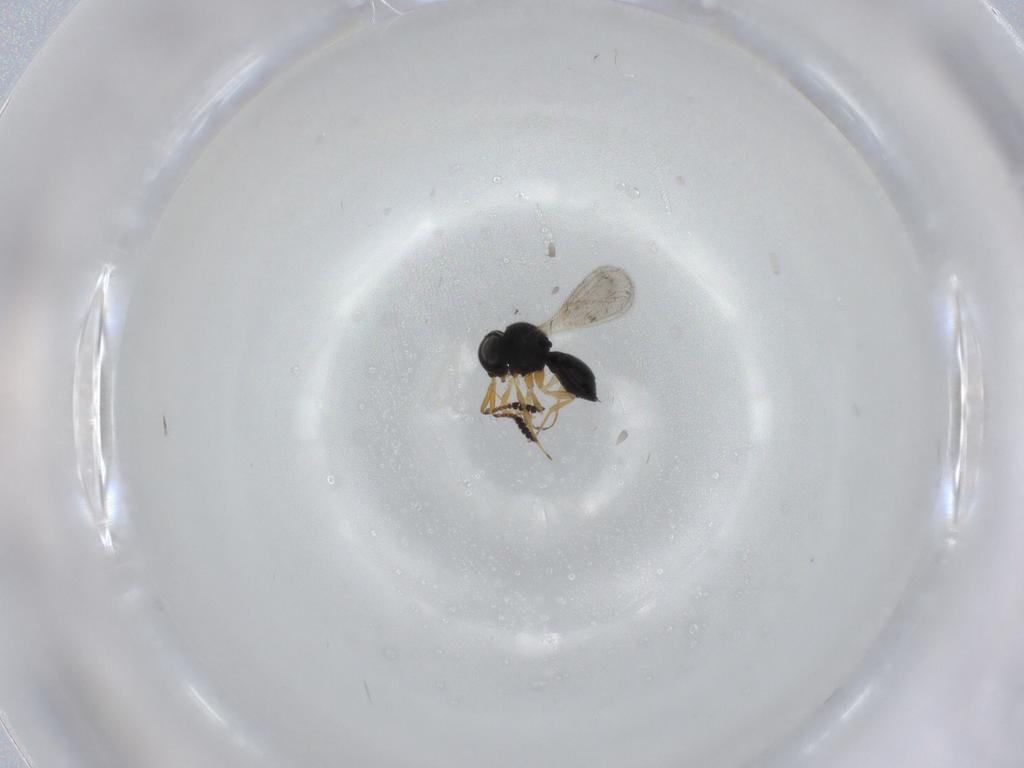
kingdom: Animalia
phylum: Arthropoda
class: Insecta
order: Hymenoptera
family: Scelionidae
